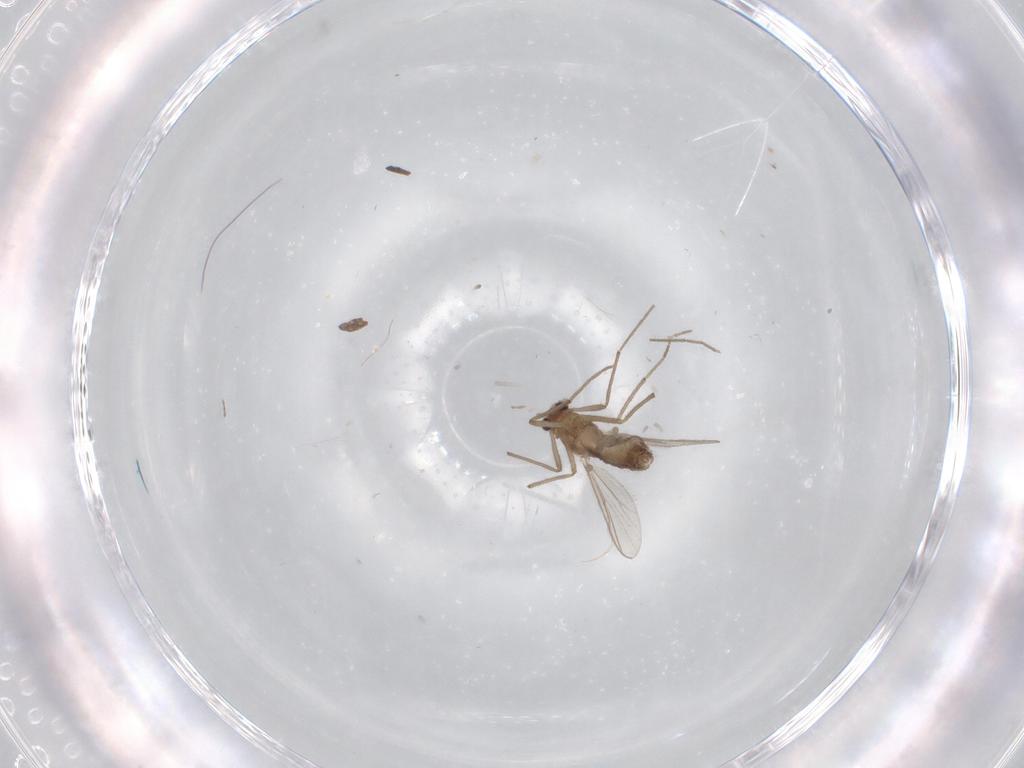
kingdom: Animalia
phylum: Arthropoda
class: Insecta
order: Diptera
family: Chironomidae
